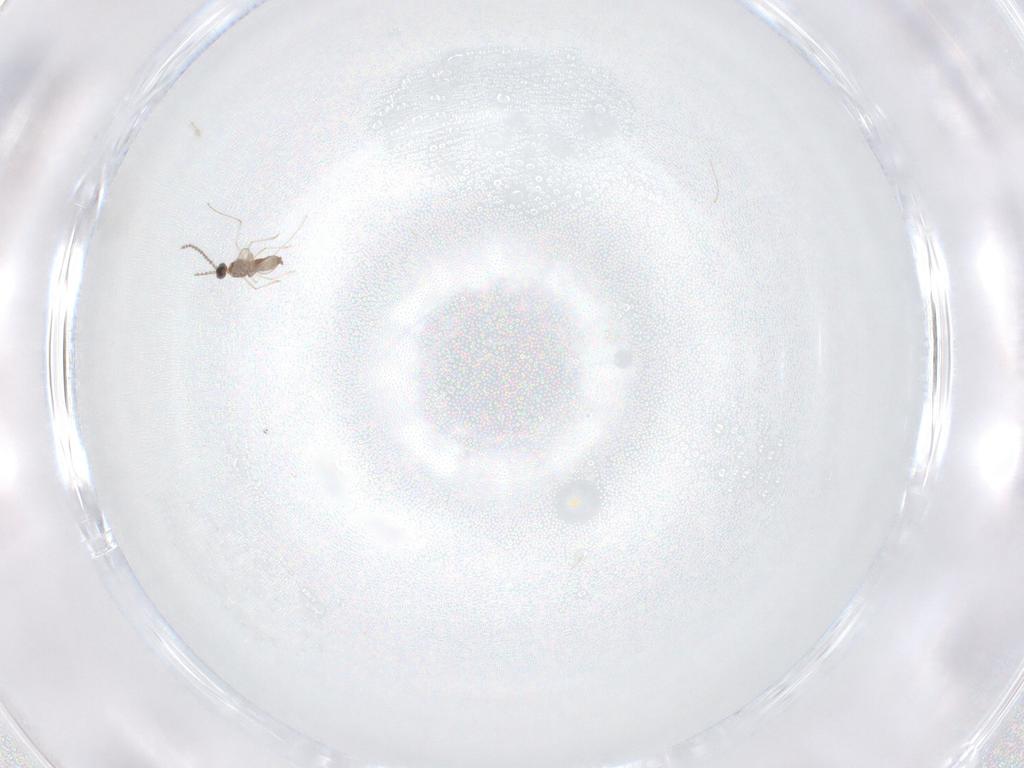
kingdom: Animalia
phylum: Arthropoda
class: Insecta
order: Diptera
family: Cecidomyiidae
